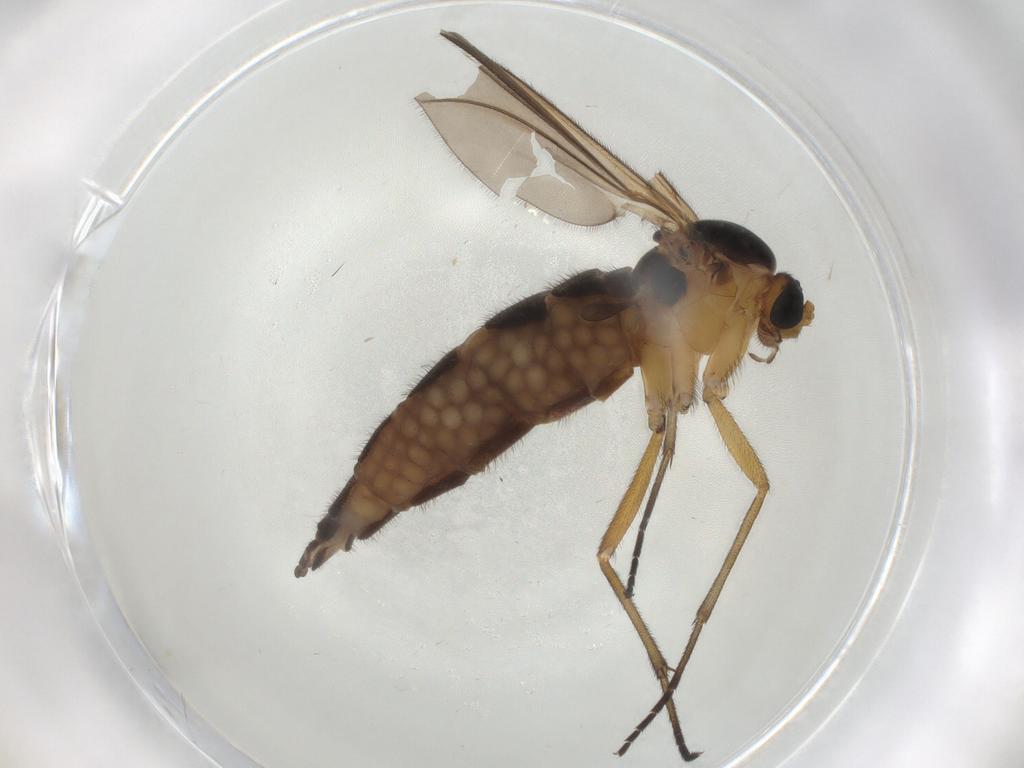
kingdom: Animalia
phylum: Arthropoda
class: Insecta
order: Diptera
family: Sciaridae
